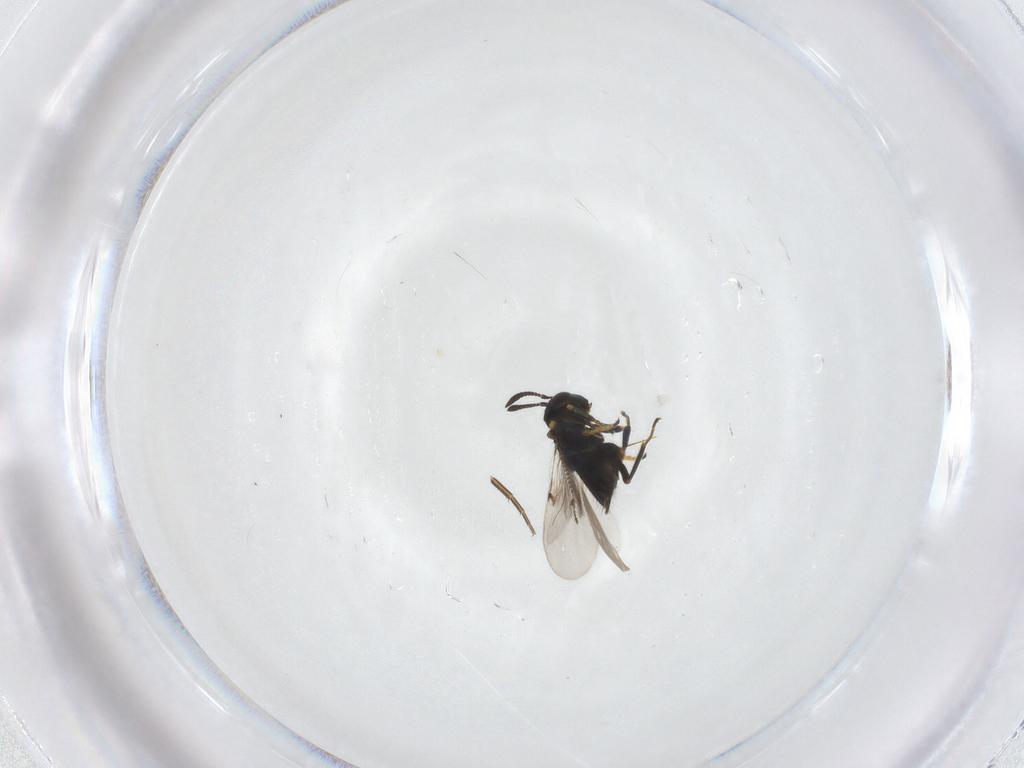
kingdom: Animalia
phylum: Arthropoda
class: Insecta
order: Hymenoptera
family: Encyrtidae
